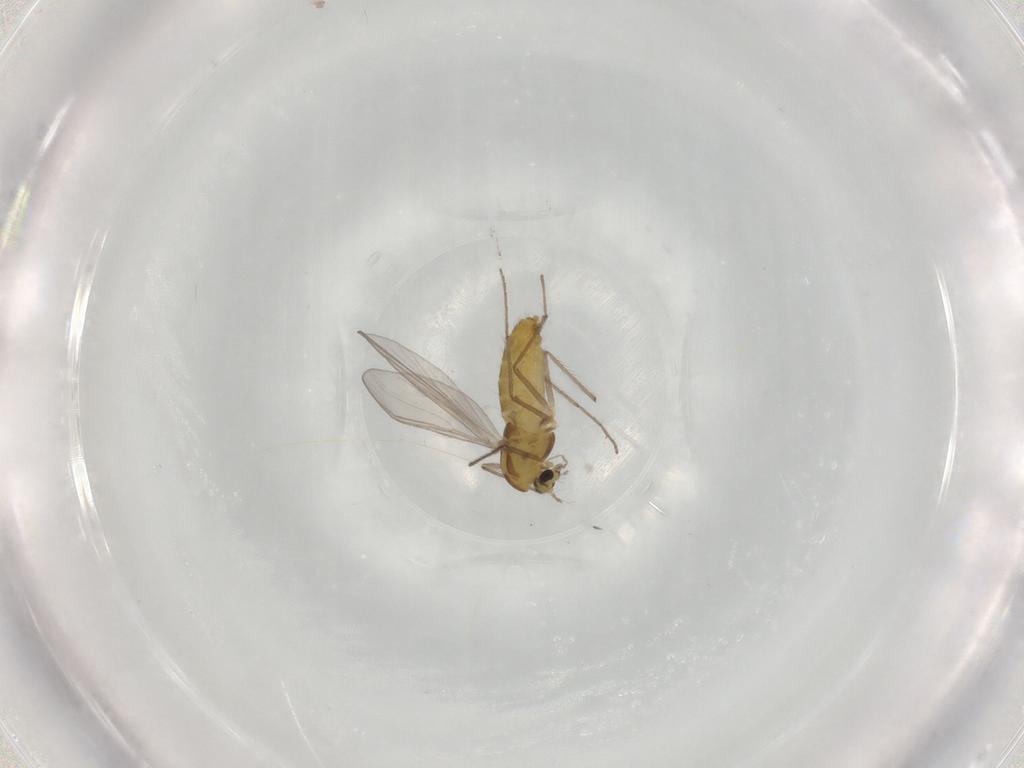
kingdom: Animalia
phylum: Arthropoda
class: Insecta
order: Diptera
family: Chironomidae
